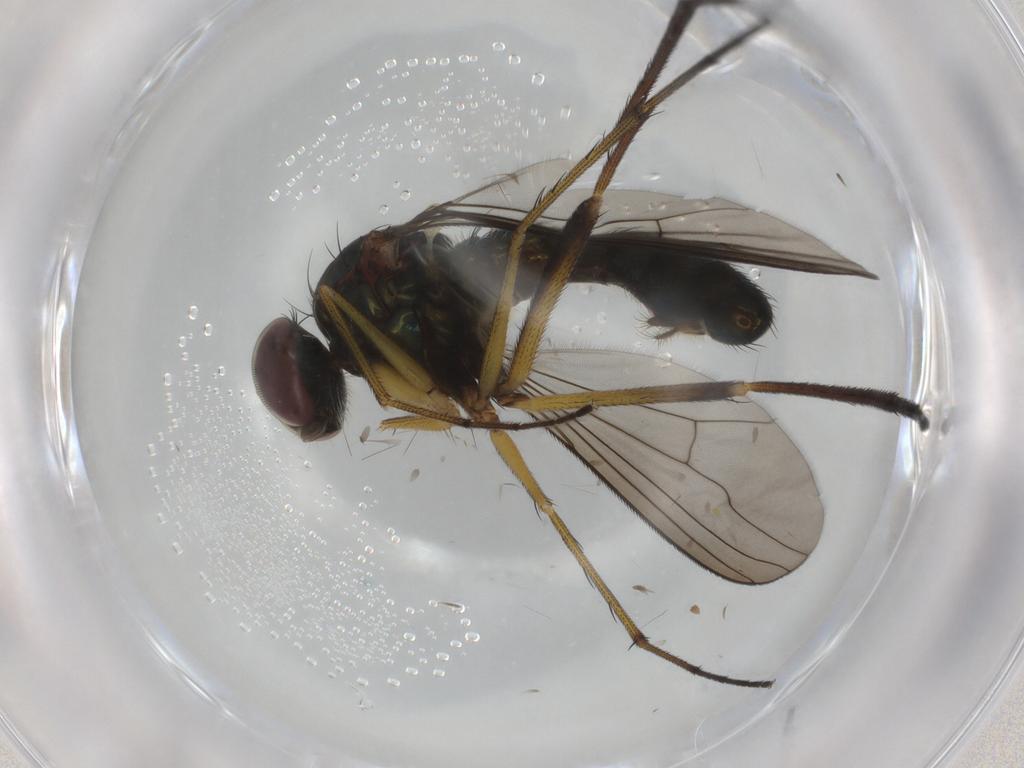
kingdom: Animalia
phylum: Arthropoda
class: Insecta
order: Diptera
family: Dolichopodidae
